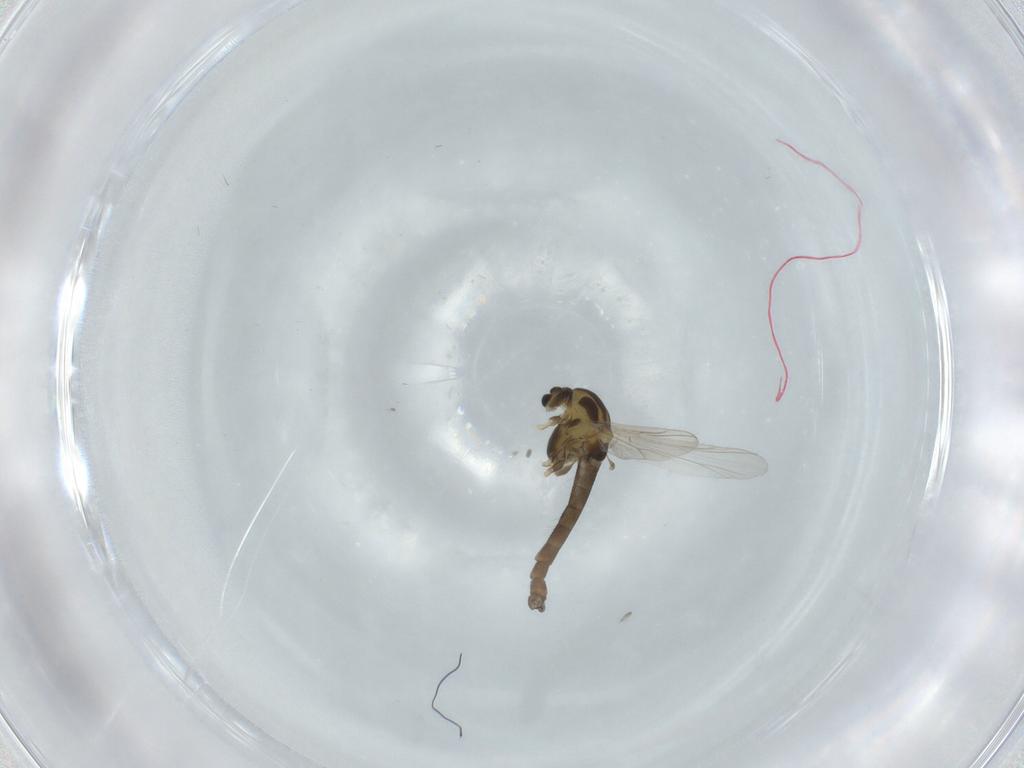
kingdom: Animalia
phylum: Arthropoda
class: Insecta
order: Diptera
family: Chironomidae
